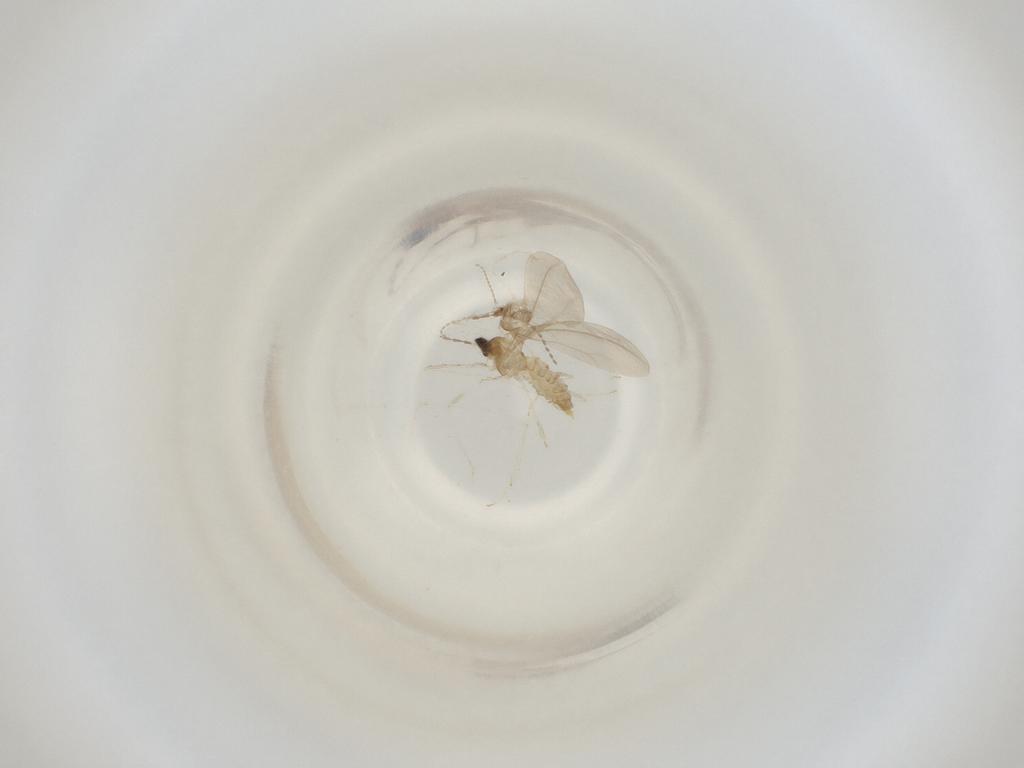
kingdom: Animalia
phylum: Arthropoda
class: Insecta
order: Diptera
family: Cecidomyiidae
